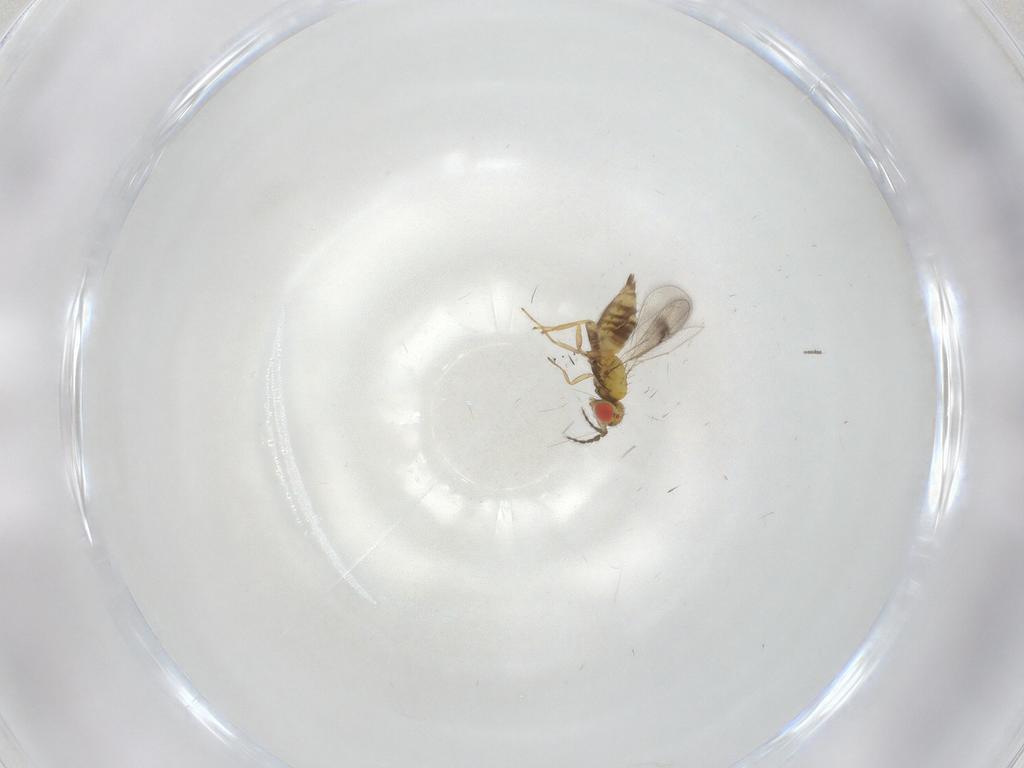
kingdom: Animalia
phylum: Arthropoda
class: Insecta
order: Hymenoptera
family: Eulophidae
